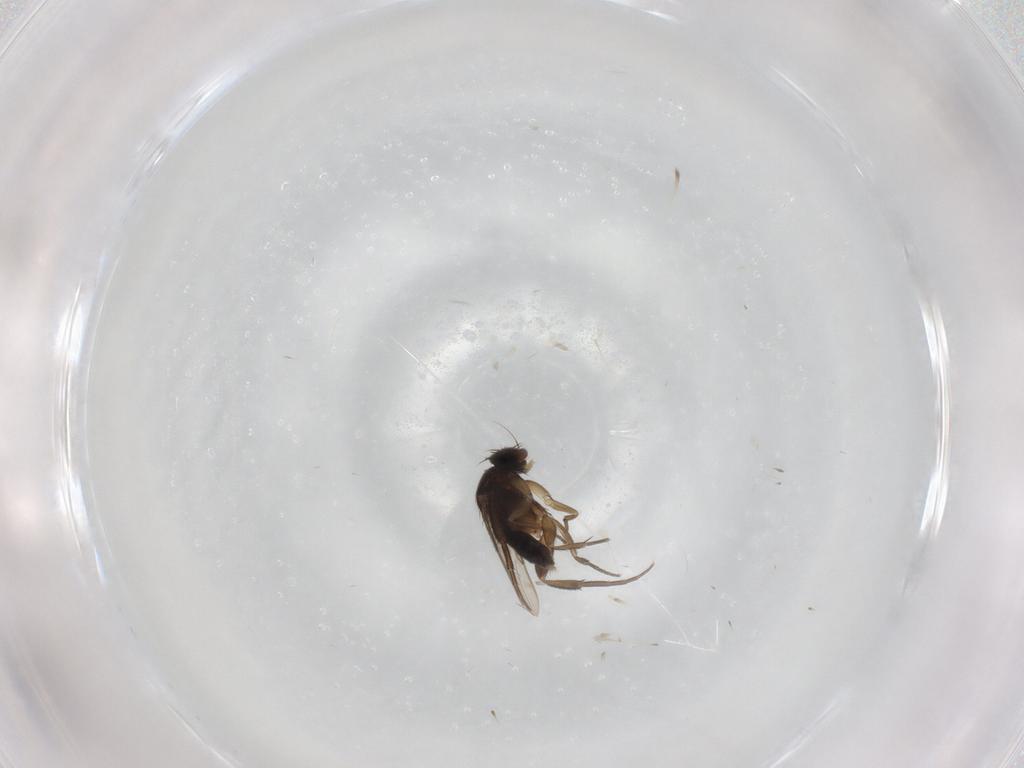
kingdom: Animalia
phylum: Arthropoda
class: Insecta
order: Diptera
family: Phoridae
